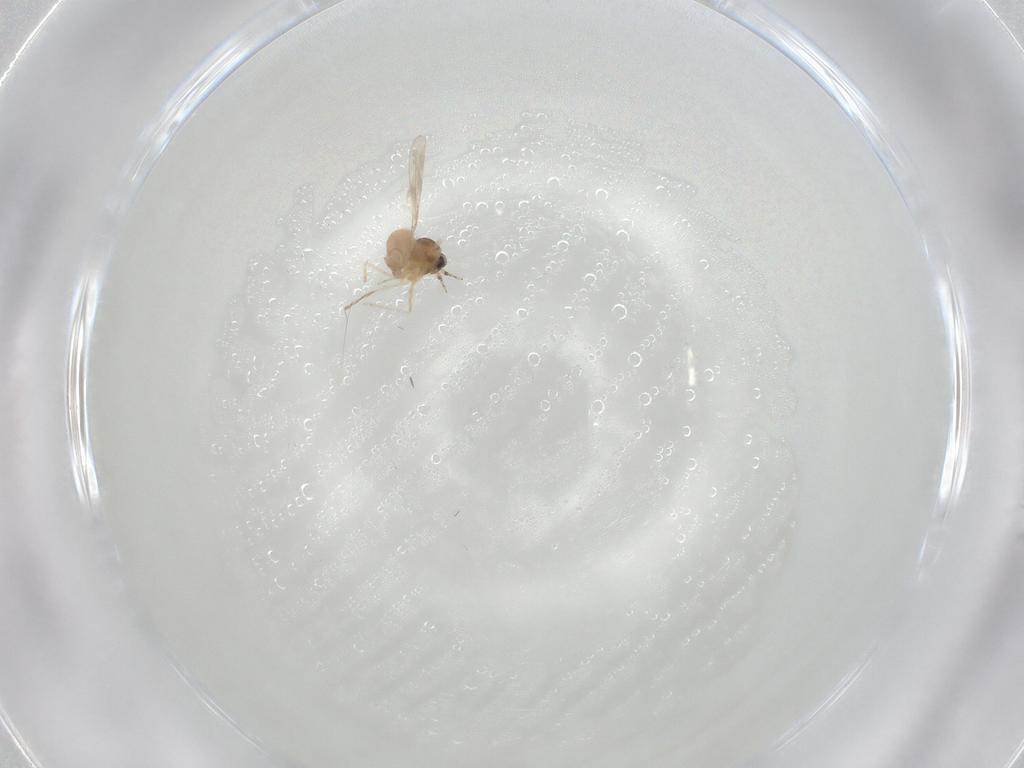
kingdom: Animalia
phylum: Arthropoda
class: Insecta
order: Diptera
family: Cecidomyiidae
